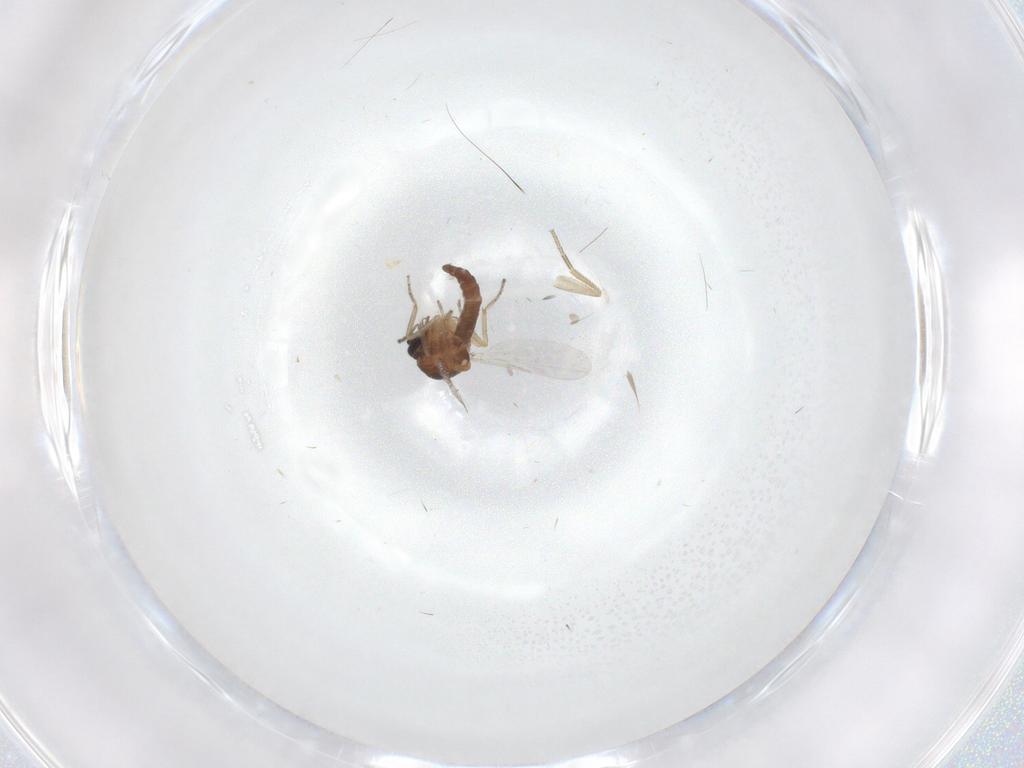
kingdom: Animalia
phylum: Arthropoda
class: Insecta
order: Diptera
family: Ceratopogonidae
